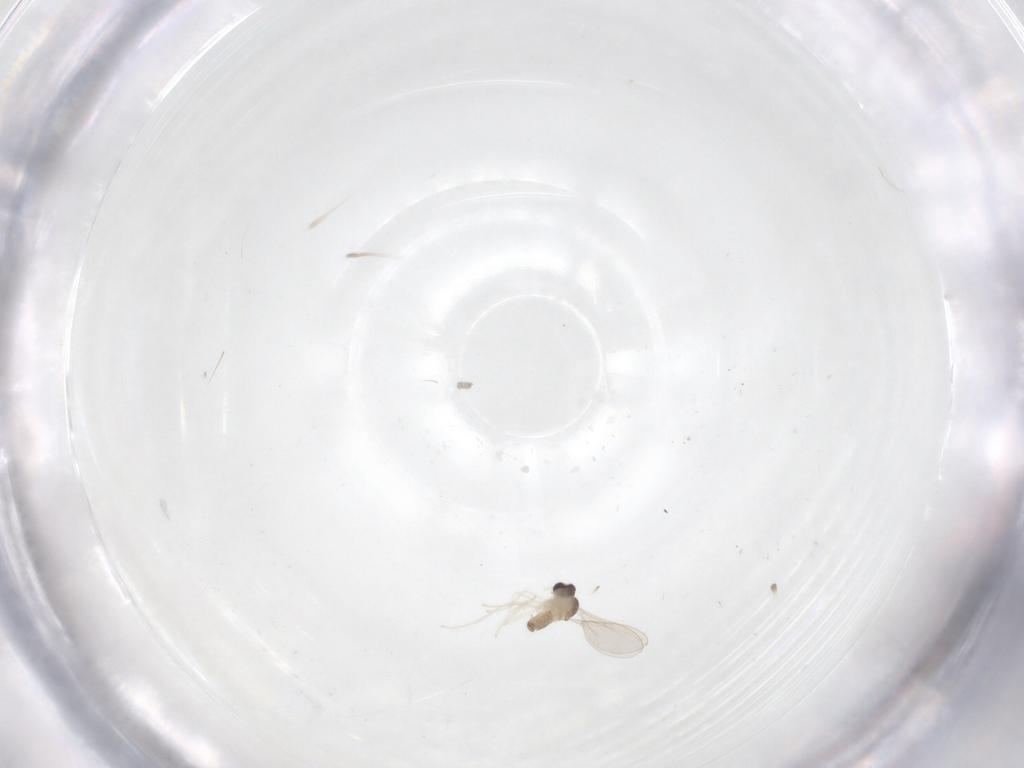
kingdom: Animalia
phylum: Arthropoda
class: Insecta
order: Diptera
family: Cecidomyiidae
